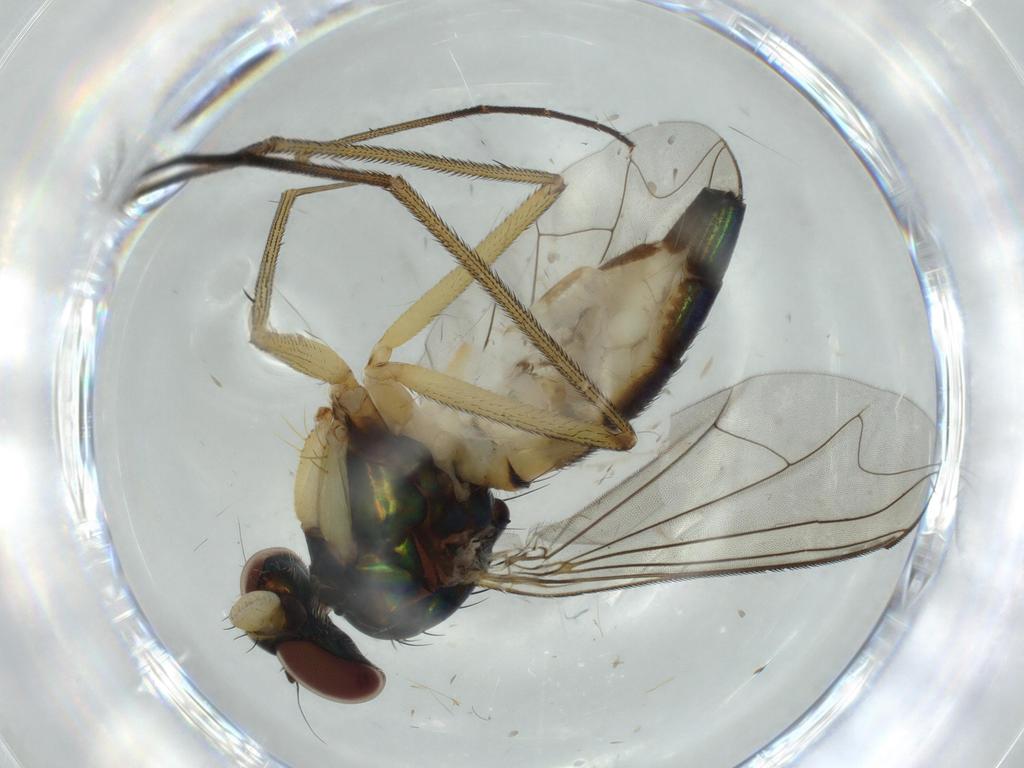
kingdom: Animalia
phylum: Arthropoda
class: Insecta
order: Diptera
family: Dolichopodidae
